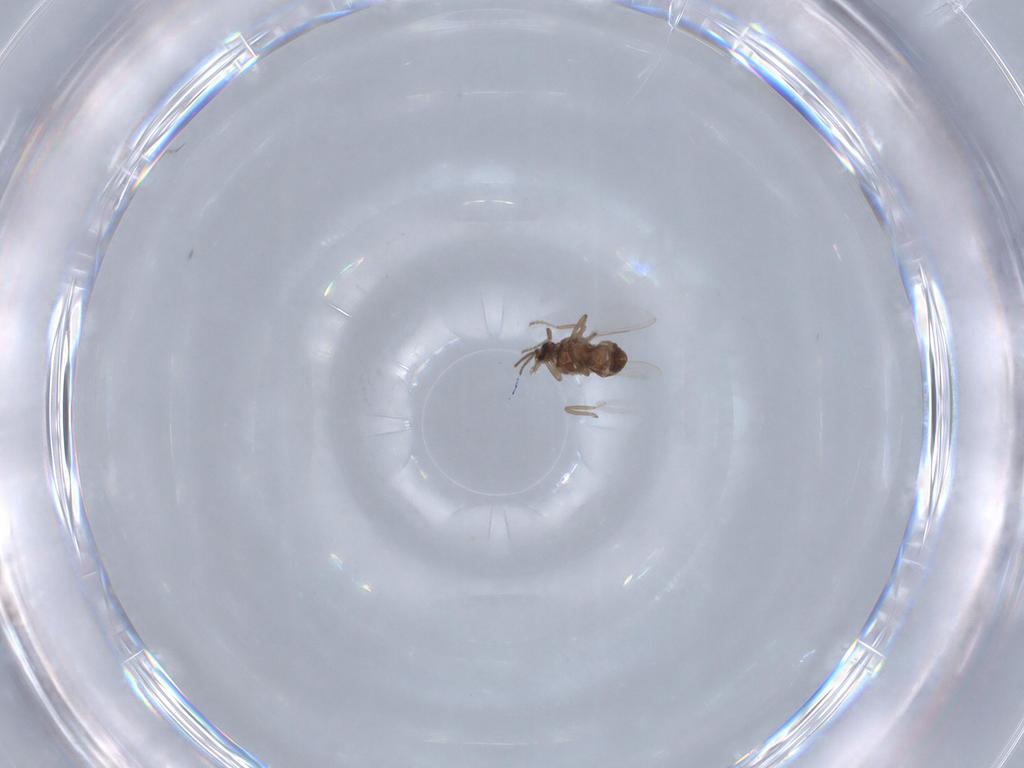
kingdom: Animalia
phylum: Arthropoda
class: Insecta
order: Diptera
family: Ceratopogonidae
